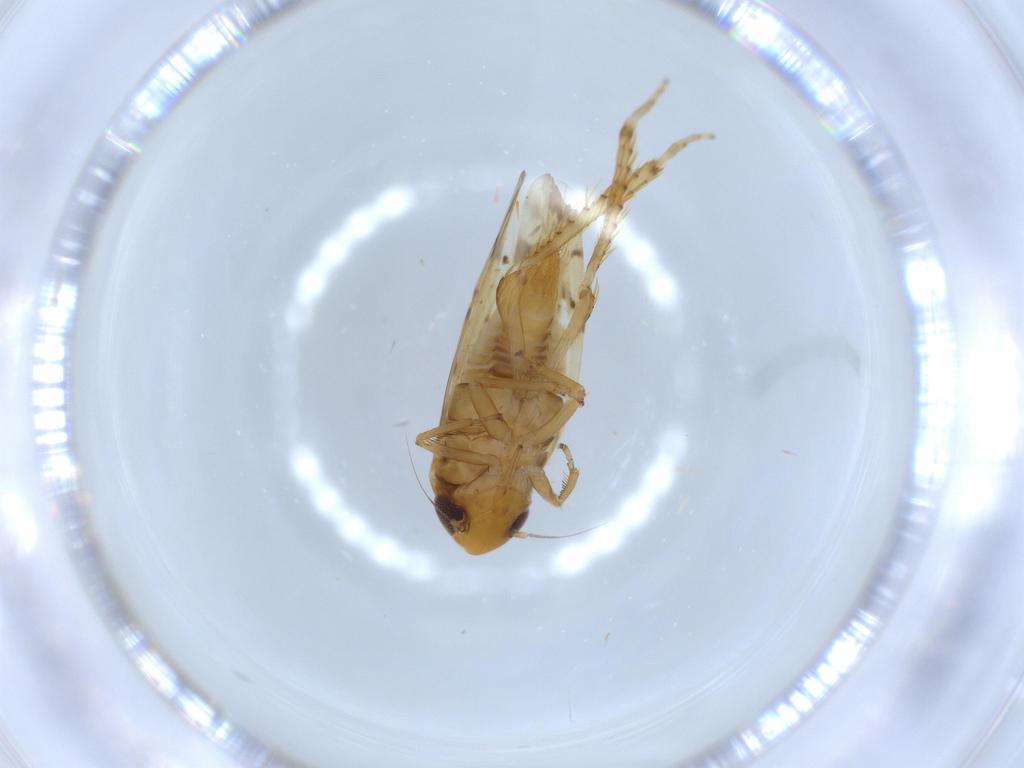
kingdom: Animalia
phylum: Arthropoda
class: Insecta
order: Hemiptera
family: Cicadellidae
